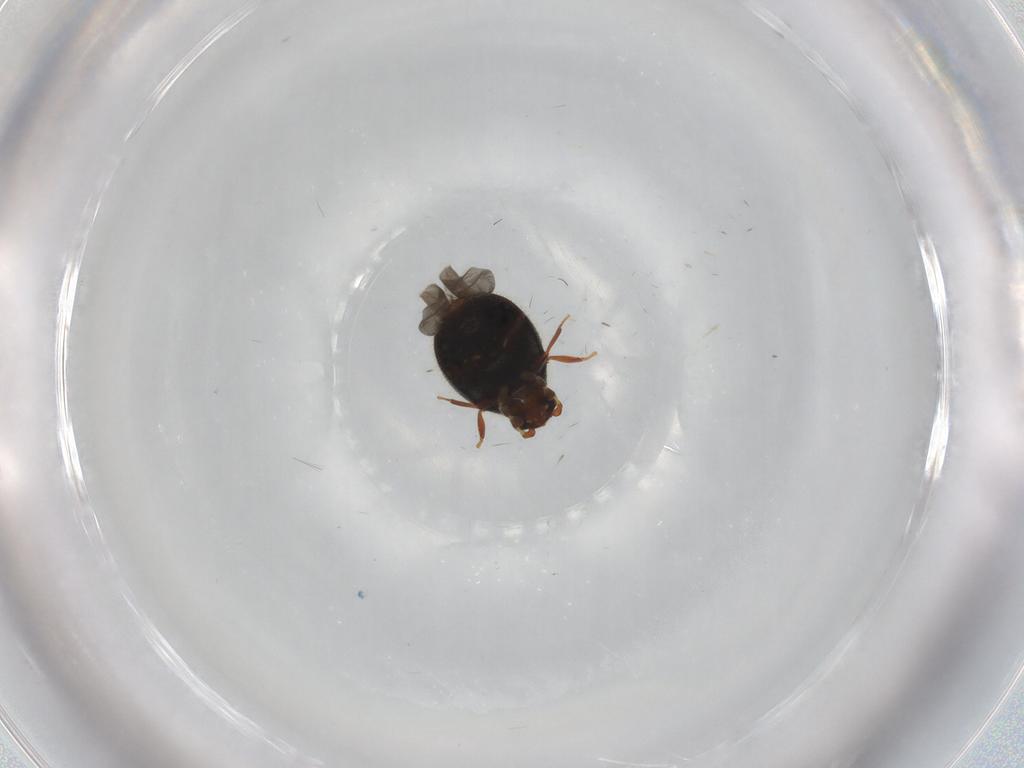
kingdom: Animalia
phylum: Arthropoda
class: Insecta
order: Coleoptera
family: Ptinidae
